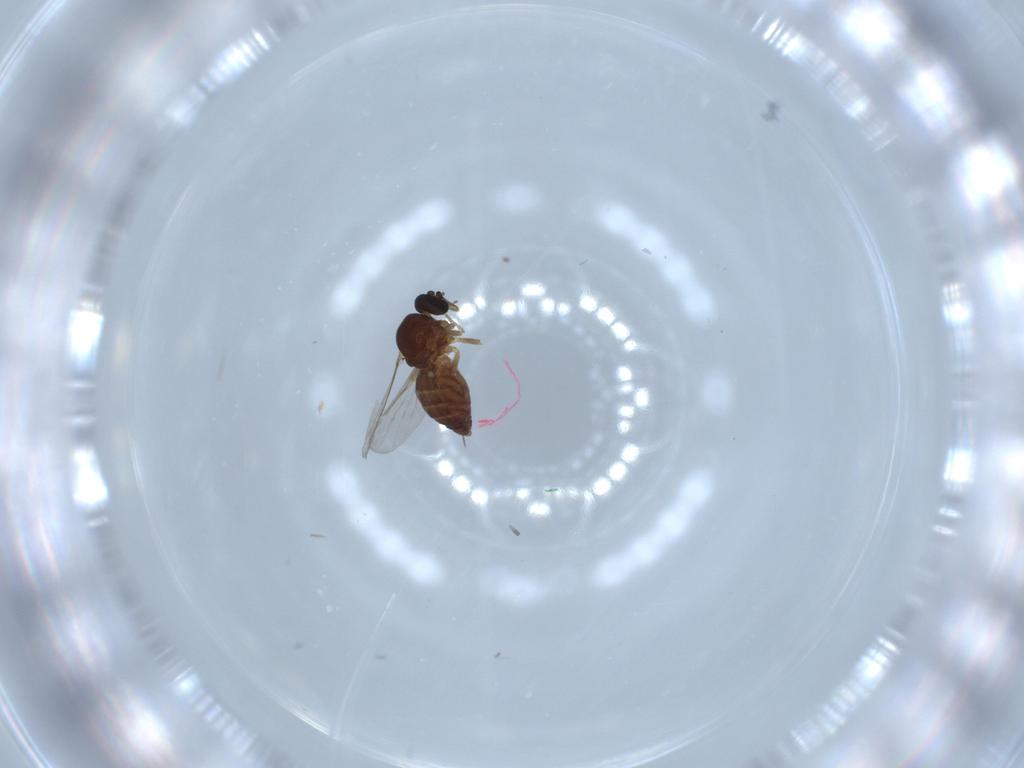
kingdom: Animalia
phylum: Arthropoda
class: Insecta
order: Diptera
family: Ceratopogonidae
